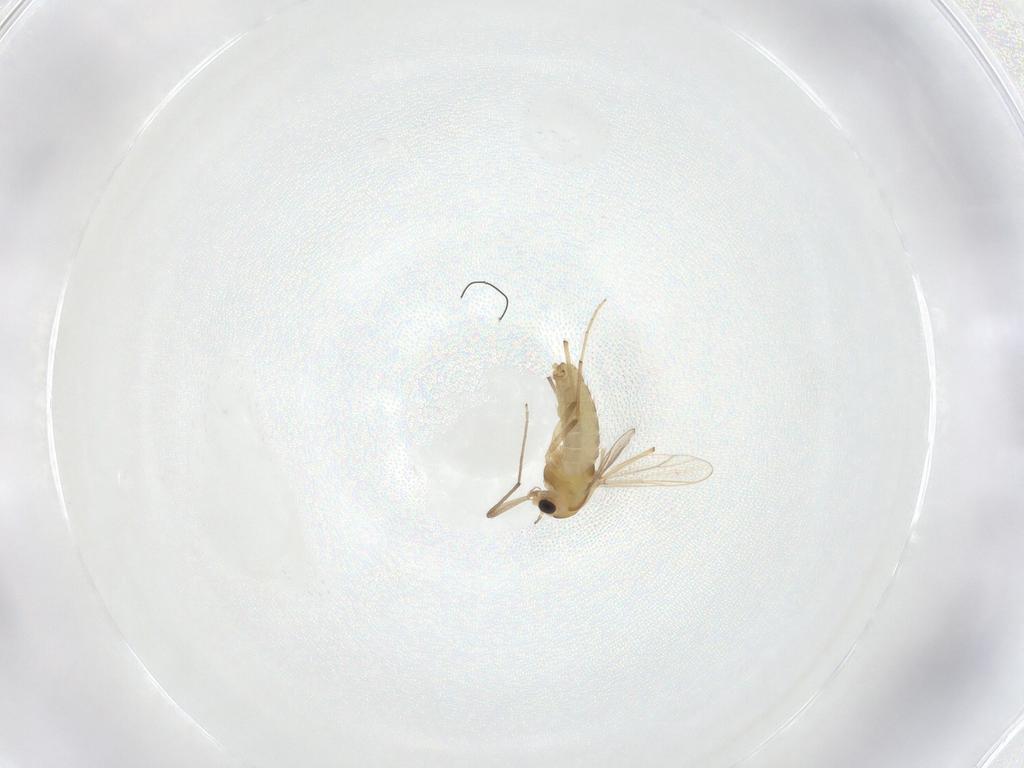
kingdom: Animalia
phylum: Arthropoda
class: Insecta
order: Diptera
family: Chironomidae
